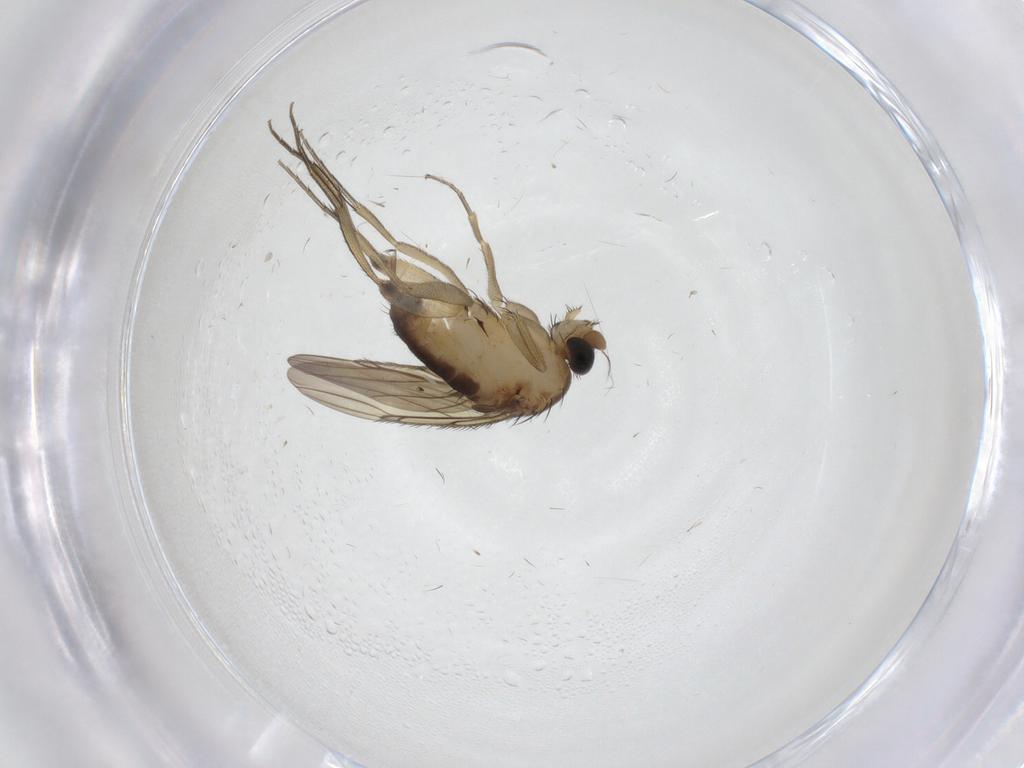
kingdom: Animalia
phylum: Arthropoda
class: Insecta
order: Diptera
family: Phoridae
